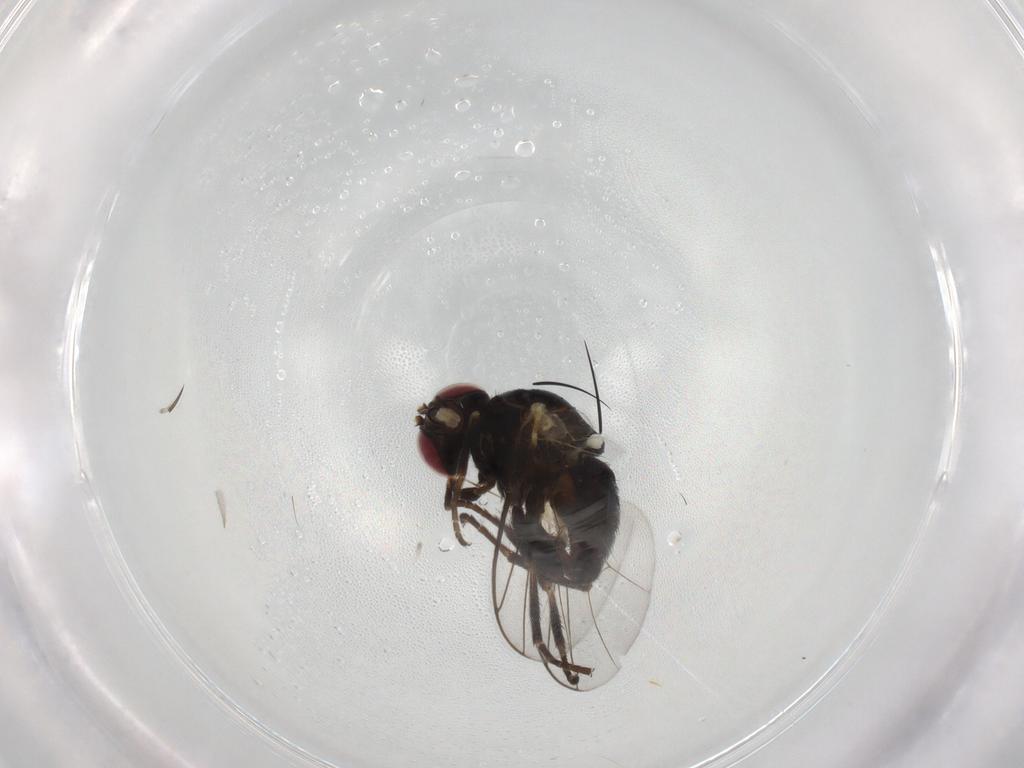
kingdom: Animalia
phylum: Arthropoda
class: Insecta
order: Diptera
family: Agromyzidae
